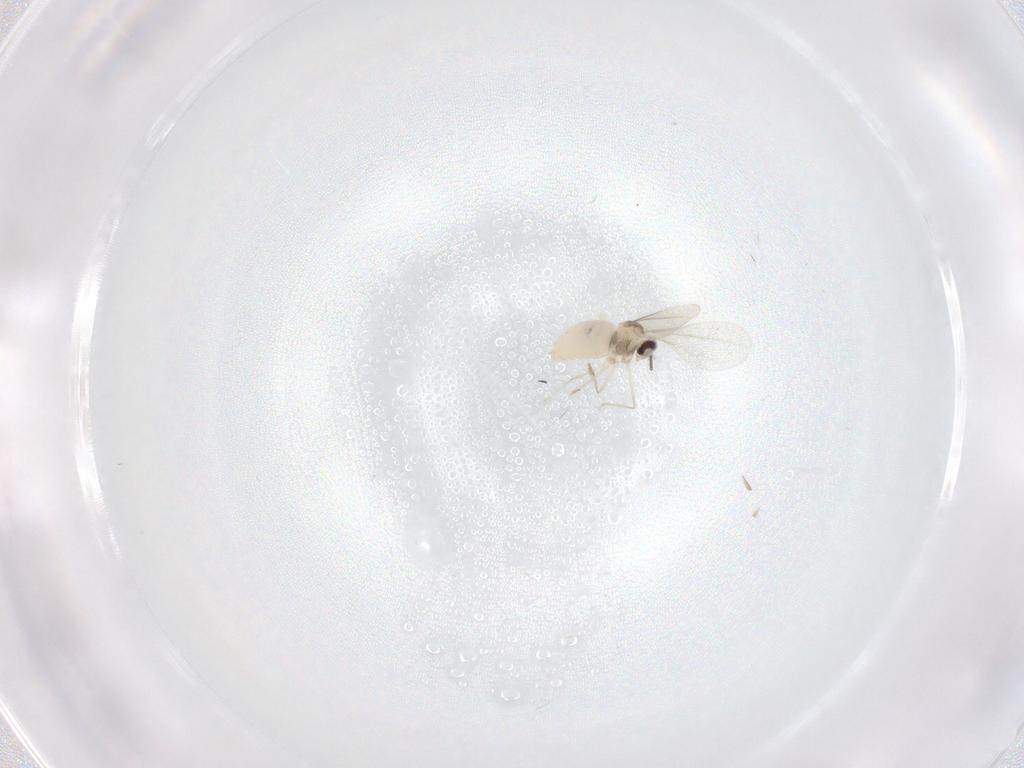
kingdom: Animalia
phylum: Arthropoda
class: Insecta
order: Diptera
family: Cecidomyiidae
